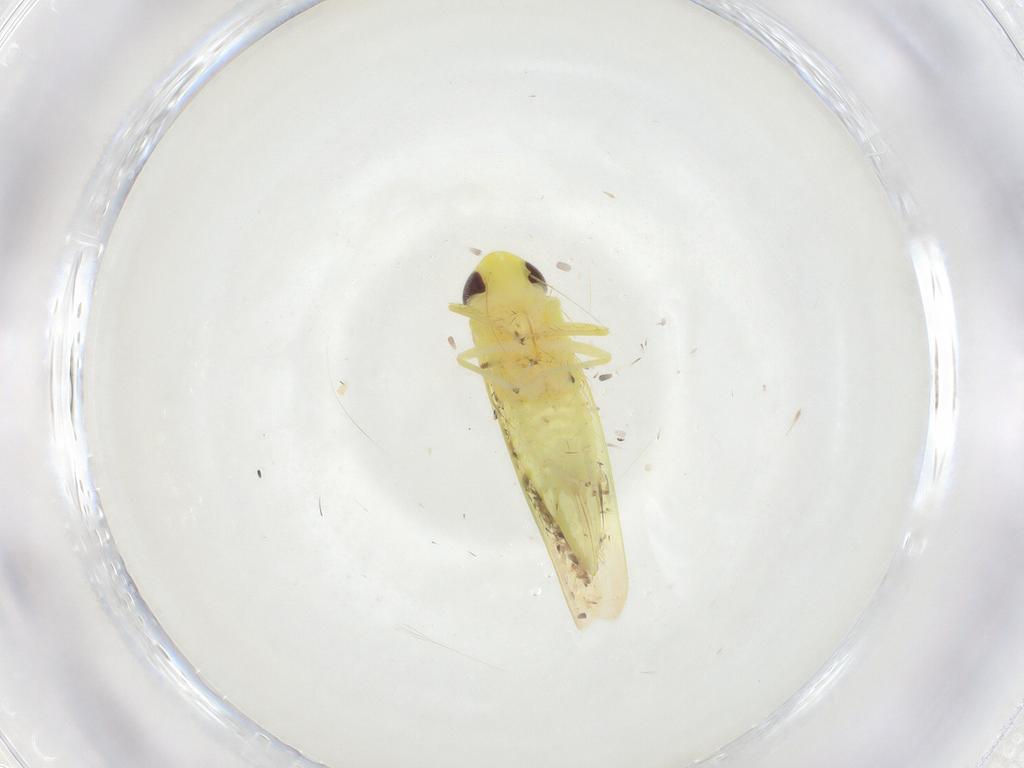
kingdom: Animalia
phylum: Arthropoda
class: Insecta
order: Hemiptera
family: Cicadellidae
